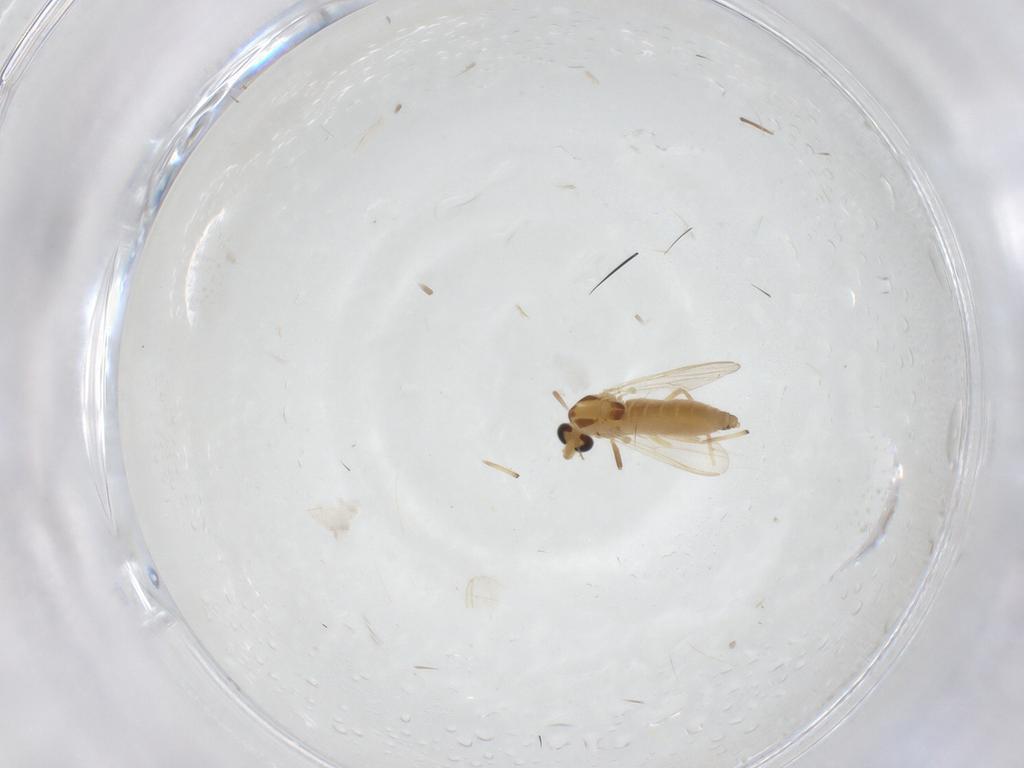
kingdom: Animalia
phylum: Arthropoda
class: Insecta
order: Diptera
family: Chironomidae
